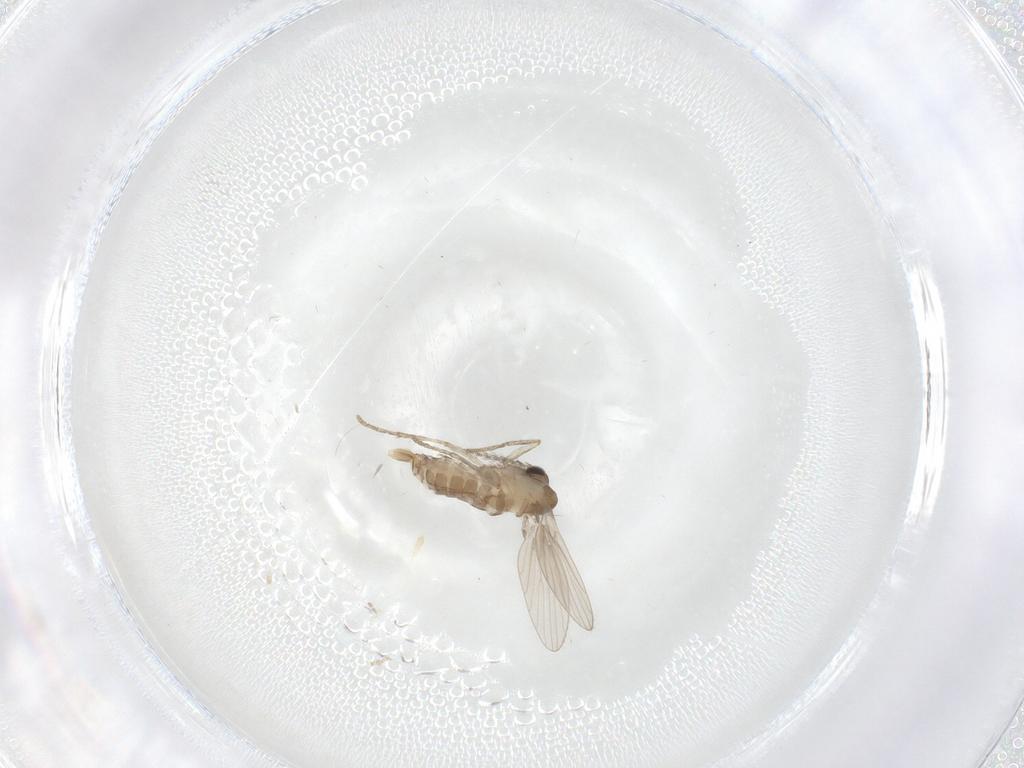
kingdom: Animalia
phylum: Arthropoda
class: Insecta
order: Diptera
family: Psychodidae
